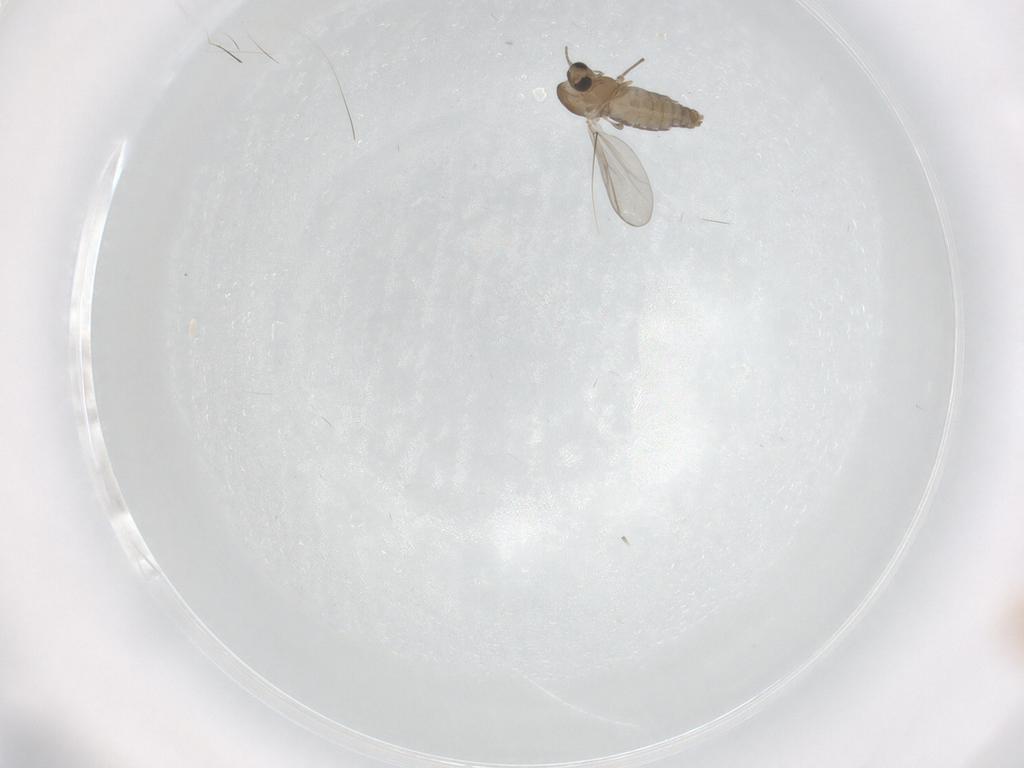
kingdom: Animalia
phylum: Arthropoda
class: Insecta
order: Diptera
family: Chironomidae
